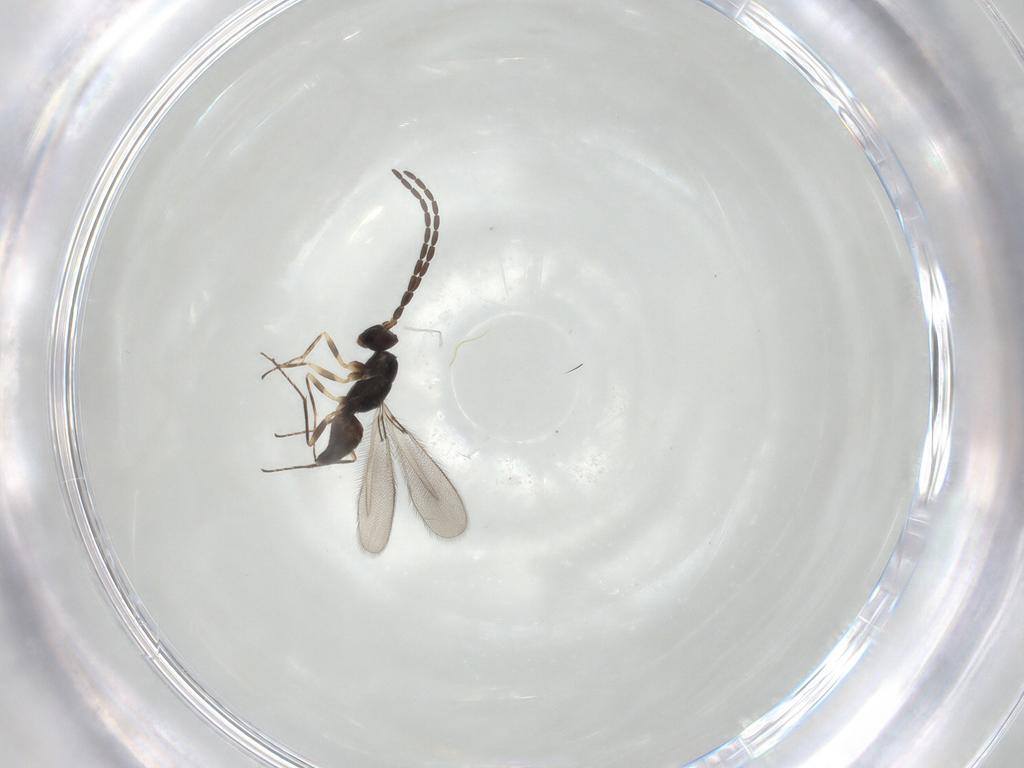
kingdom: Animalia
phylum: Arthropoda
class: Insecta
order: Hymenoptera
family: Mymaridae
